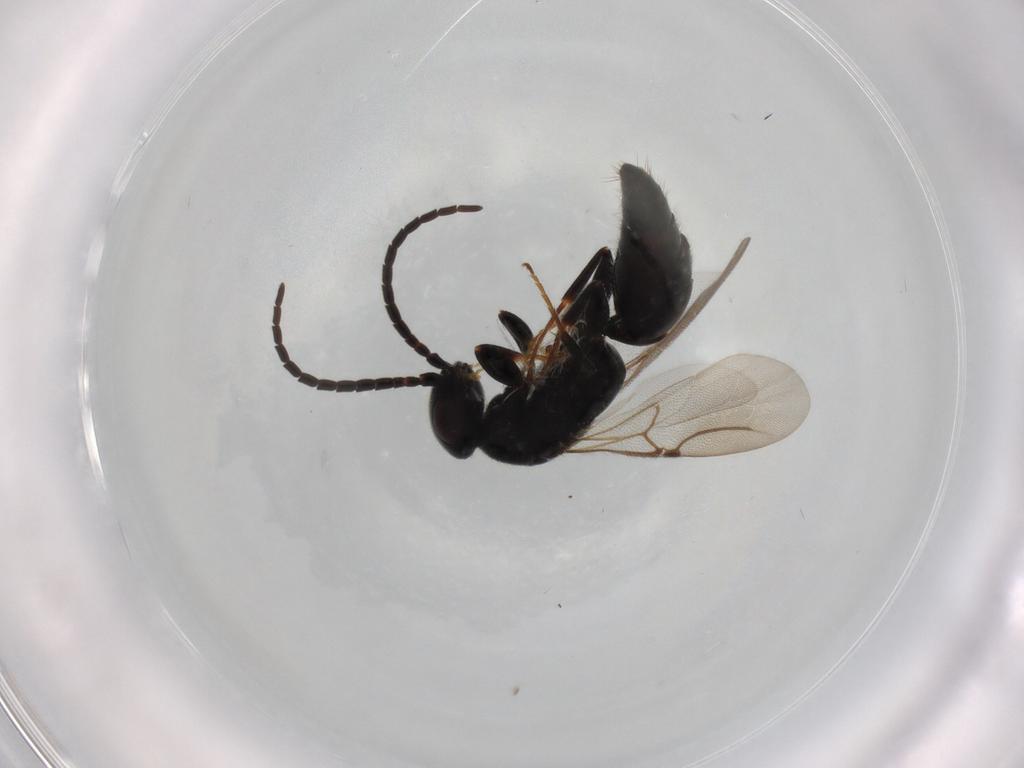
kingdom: Animalia
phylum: Arthropoda
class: Insecta
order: Hymenoptera
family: Bethylidae
